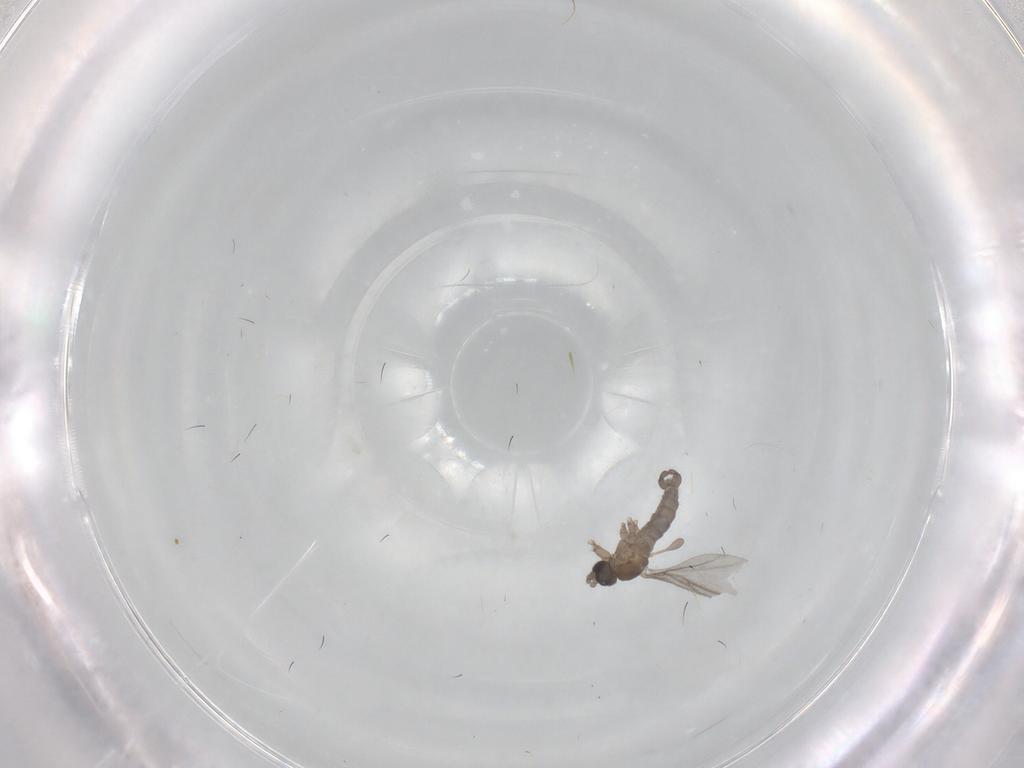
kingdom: Animalia
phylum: Arthropoda
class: Insecta
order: Diptera
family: Sciaridae
